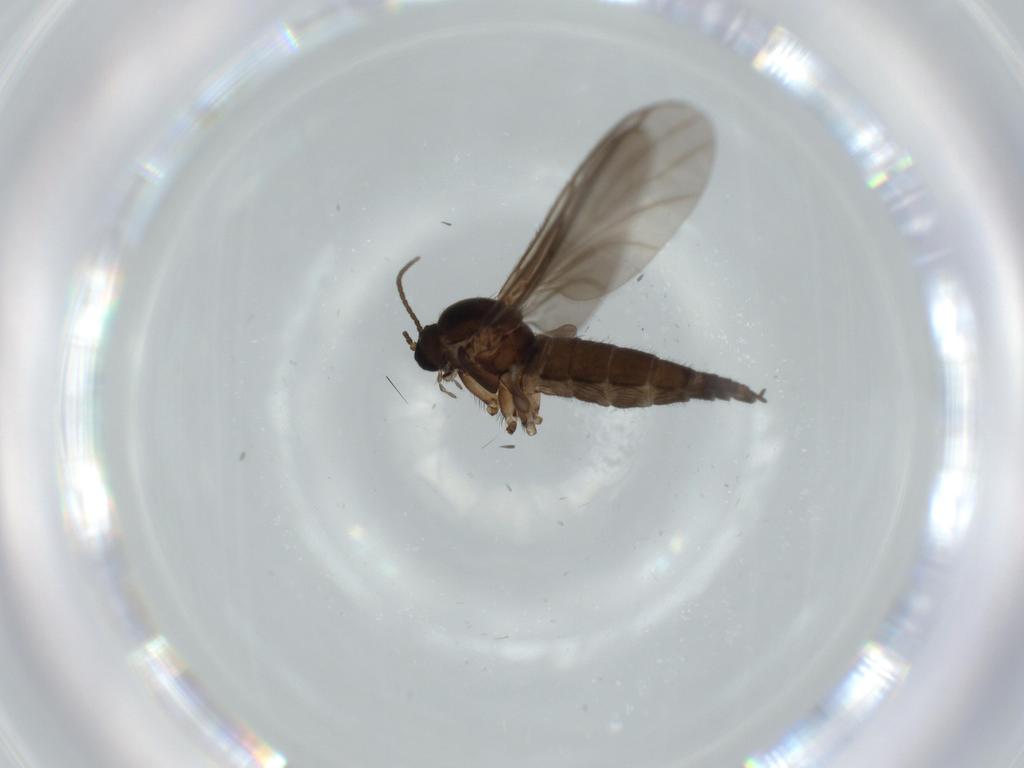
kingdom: Animalia
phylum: Arthropoda
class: Insecta
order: Diptera
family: Sciaridae
